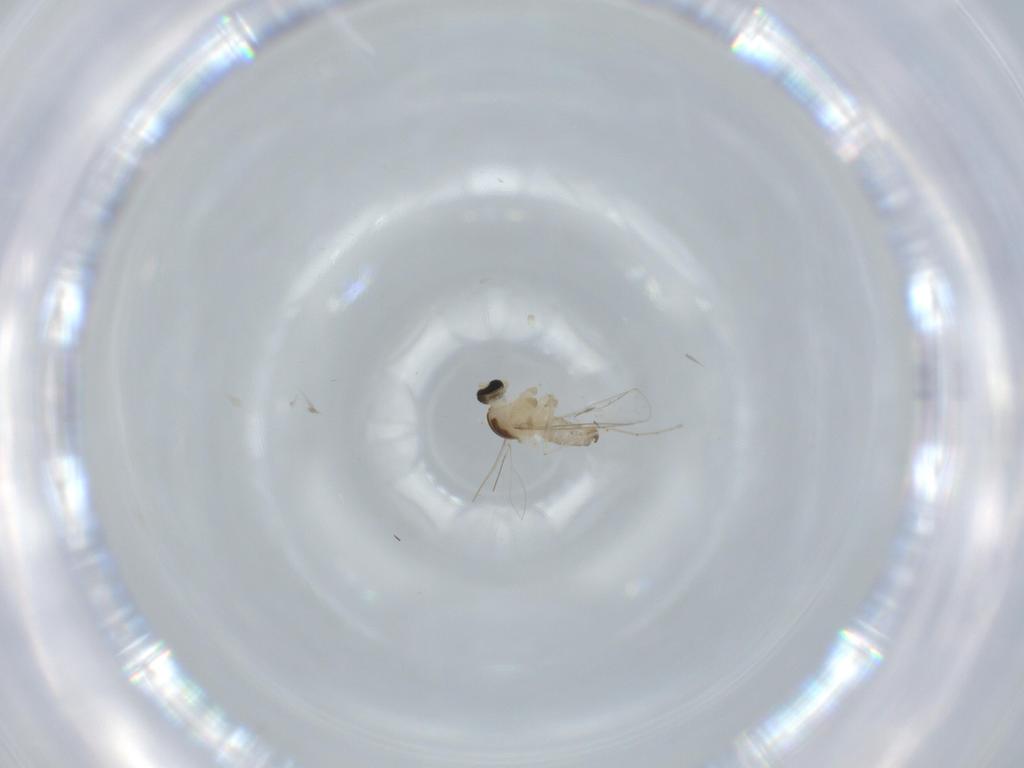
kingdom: Animalia
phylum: Arthropoda
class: Insecta
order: Diptera
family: Cecidomyiidae
